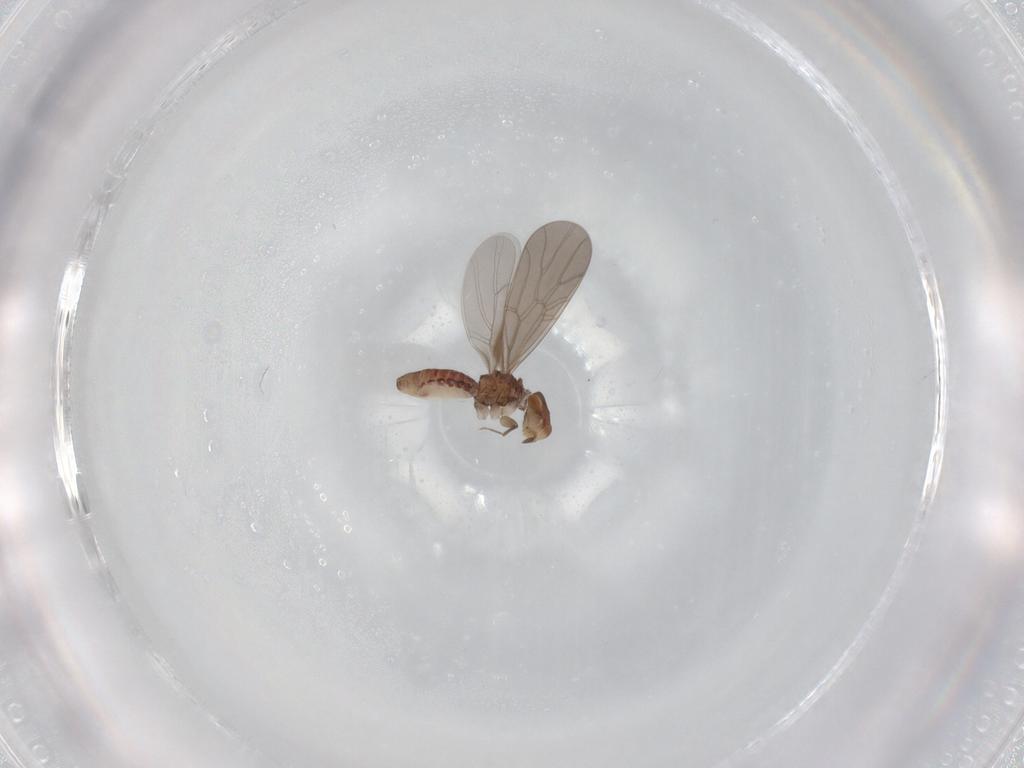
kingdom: Animalia
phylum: Arthropoda
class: Insecta
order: Psocodea
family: Lepidopsocidae
